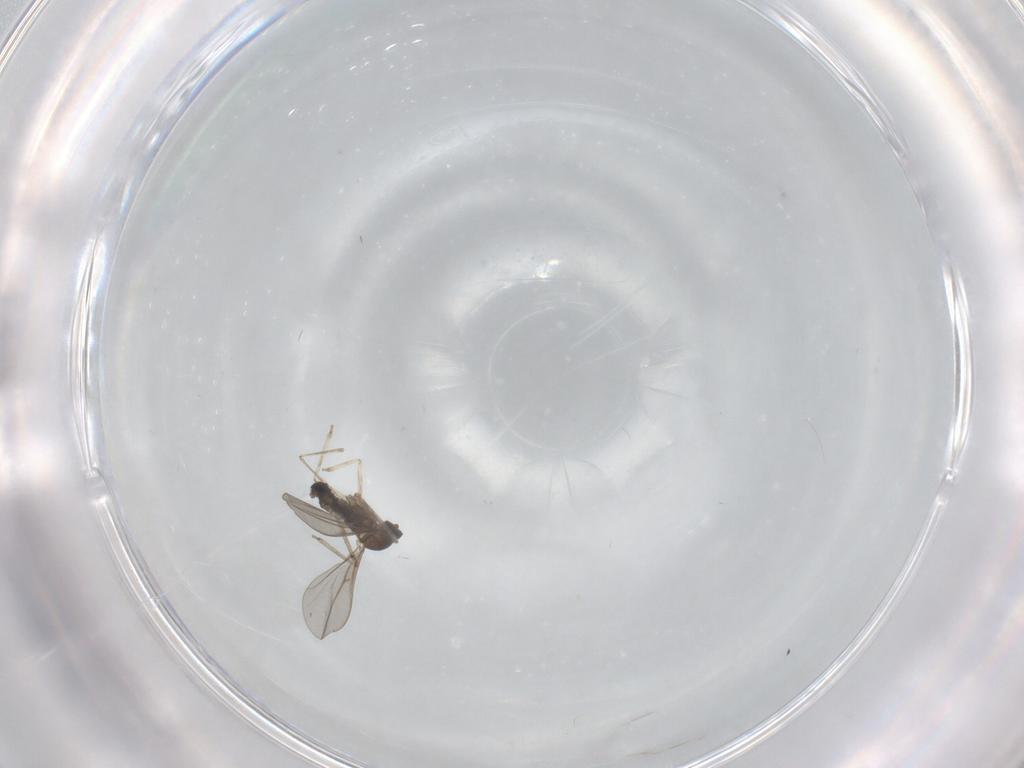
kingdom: Animalia
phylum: Arthropoda
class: Insecta
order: Diptera
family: Cecidomyiidae
